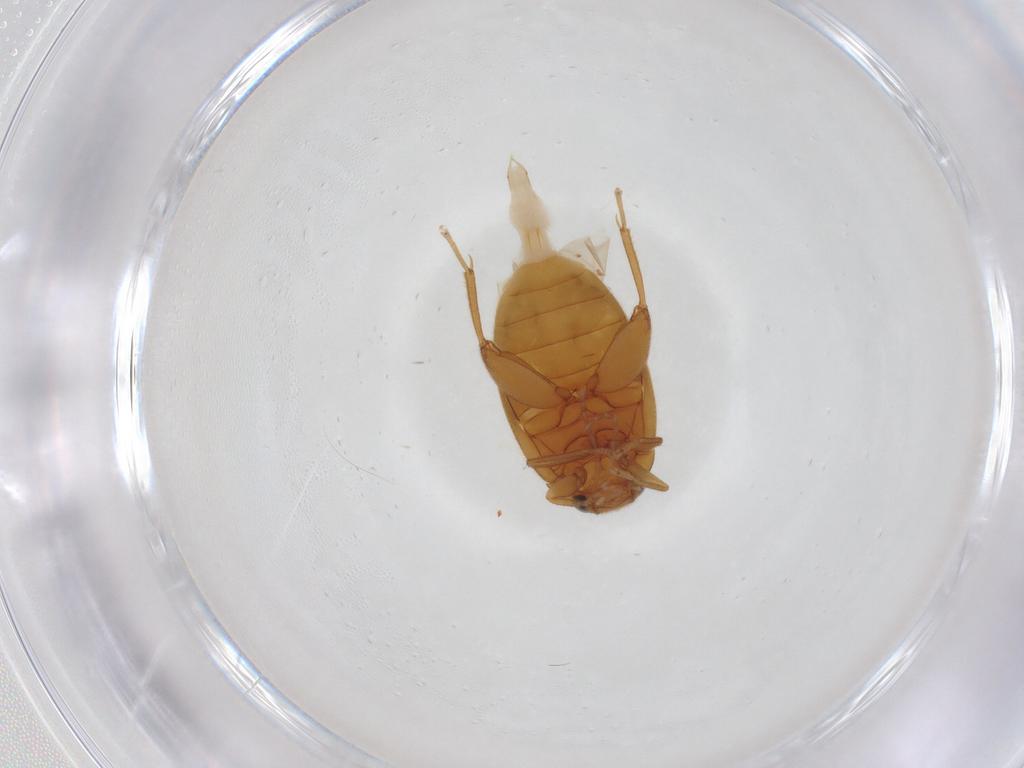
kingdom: Animalia
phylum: Arthropoda
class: Insecta
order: Coleoptera
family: Scirtidae
